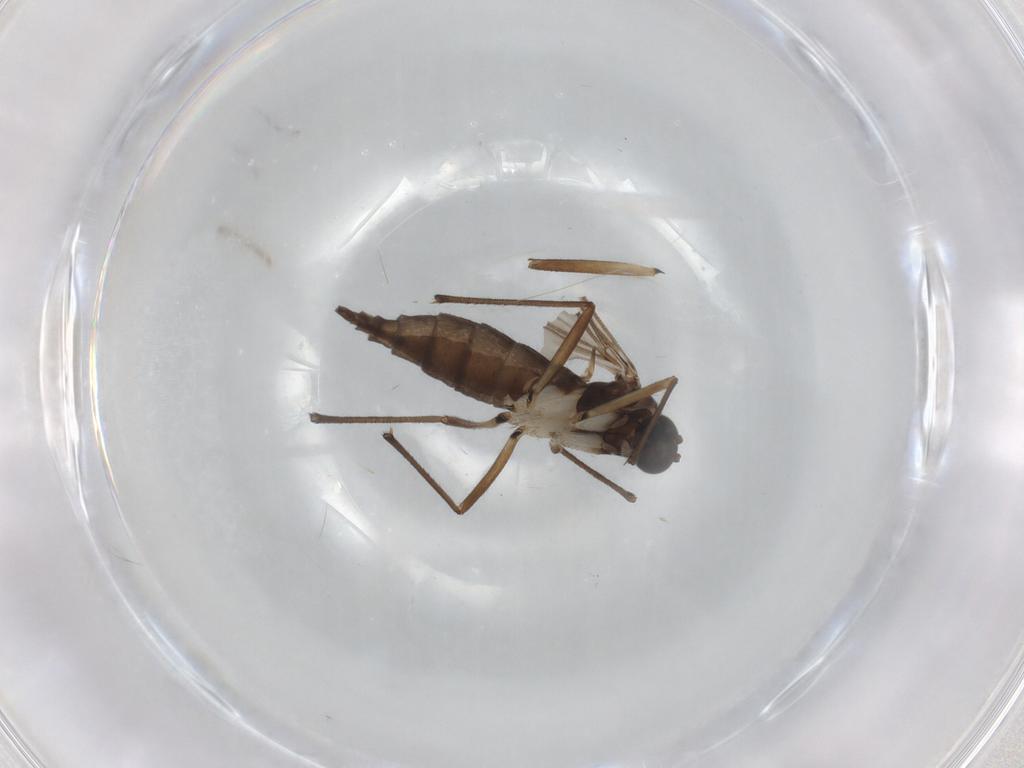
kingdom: Animalia
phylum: Arthropoda
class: Insecta
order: Diptera
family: Sciaridae
